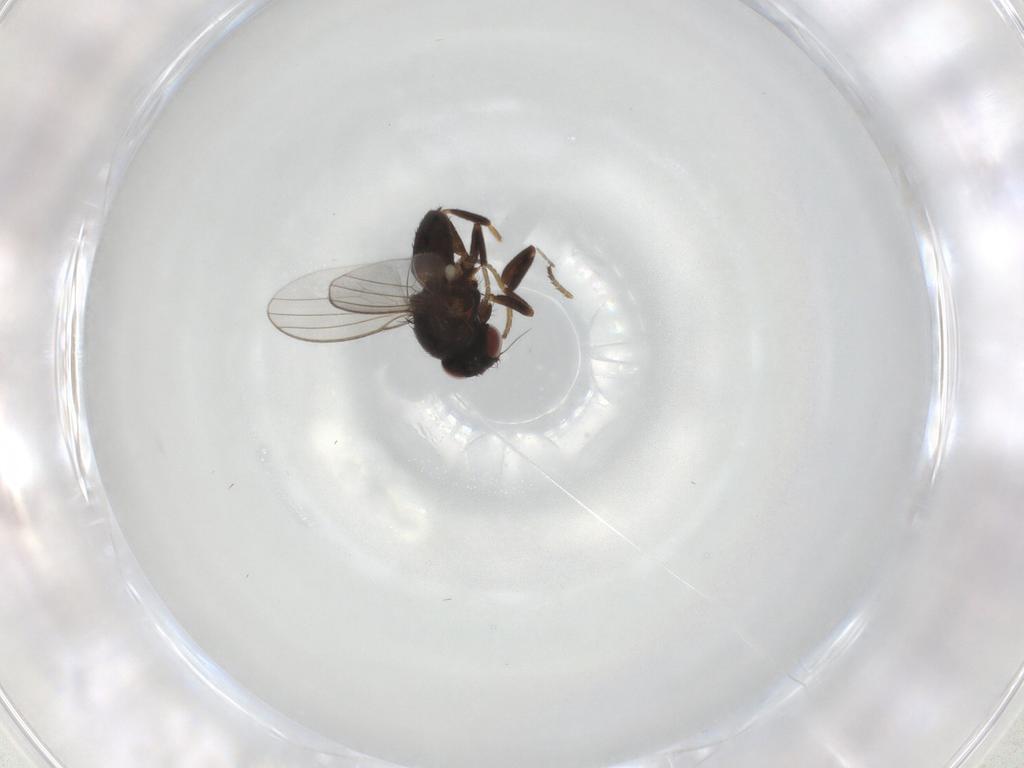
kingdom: Animalia
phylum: Arthropoda
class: Insecta
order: Diptera
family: Milichiidae
